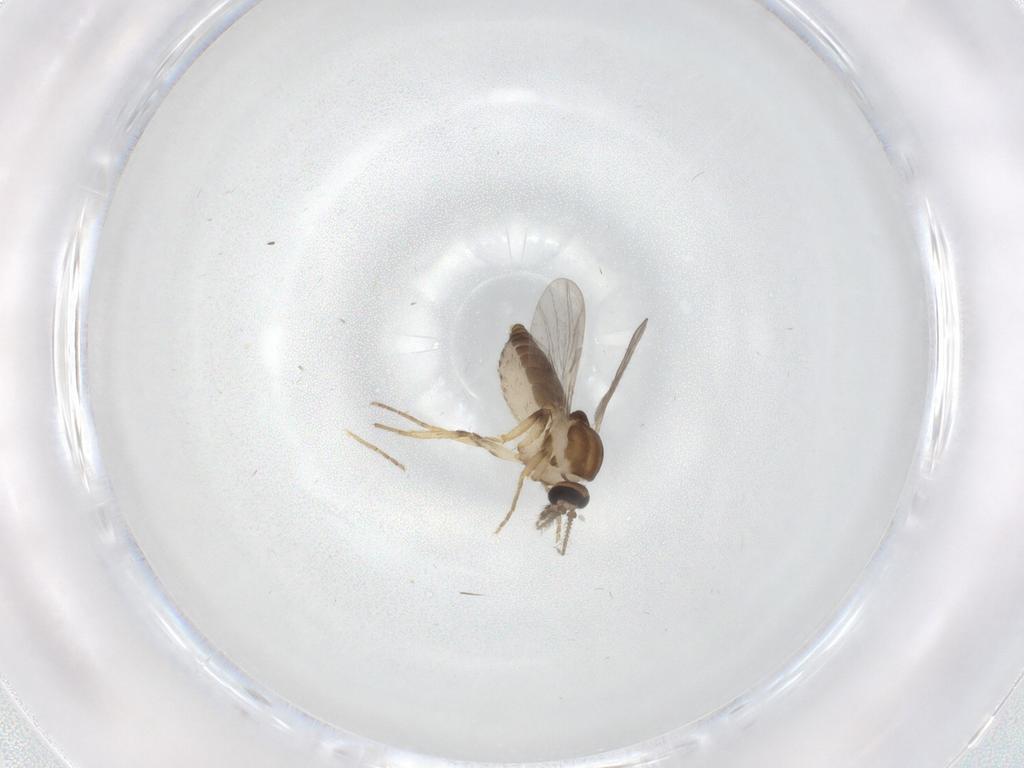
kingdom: Animalia
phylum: Arthropoda
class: Insecta
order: Diptera
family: Ceratopogonidae
